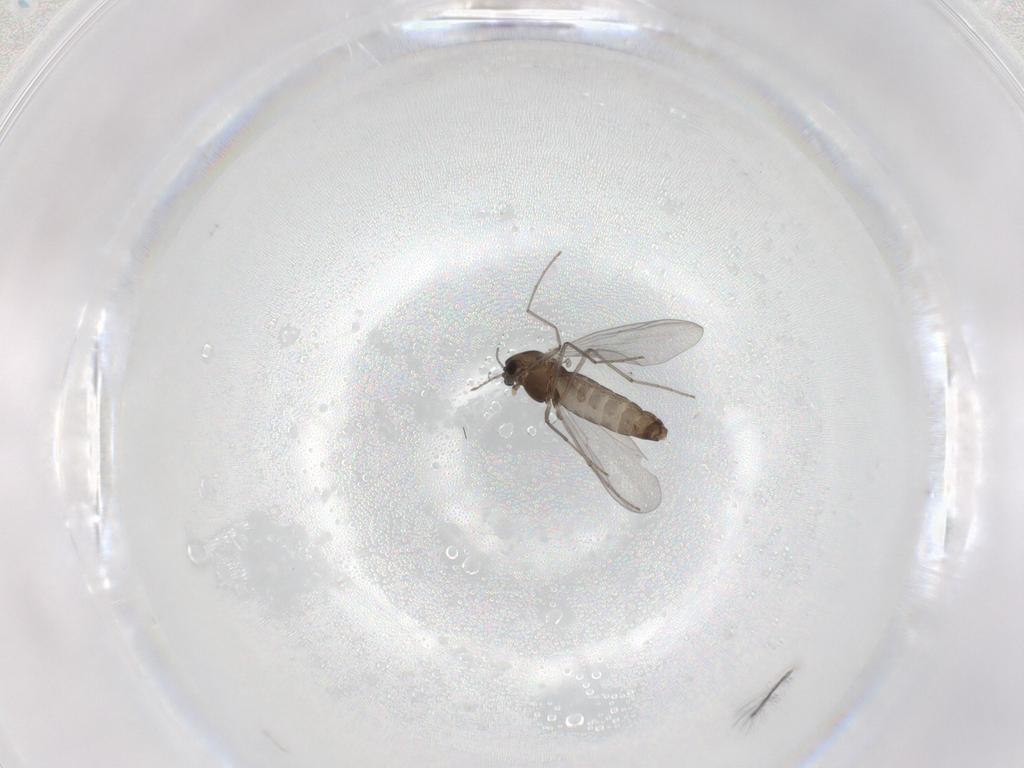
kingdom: Animalia
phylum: Arthropoda
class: Insecta
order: Diptera
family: Chironomidae
